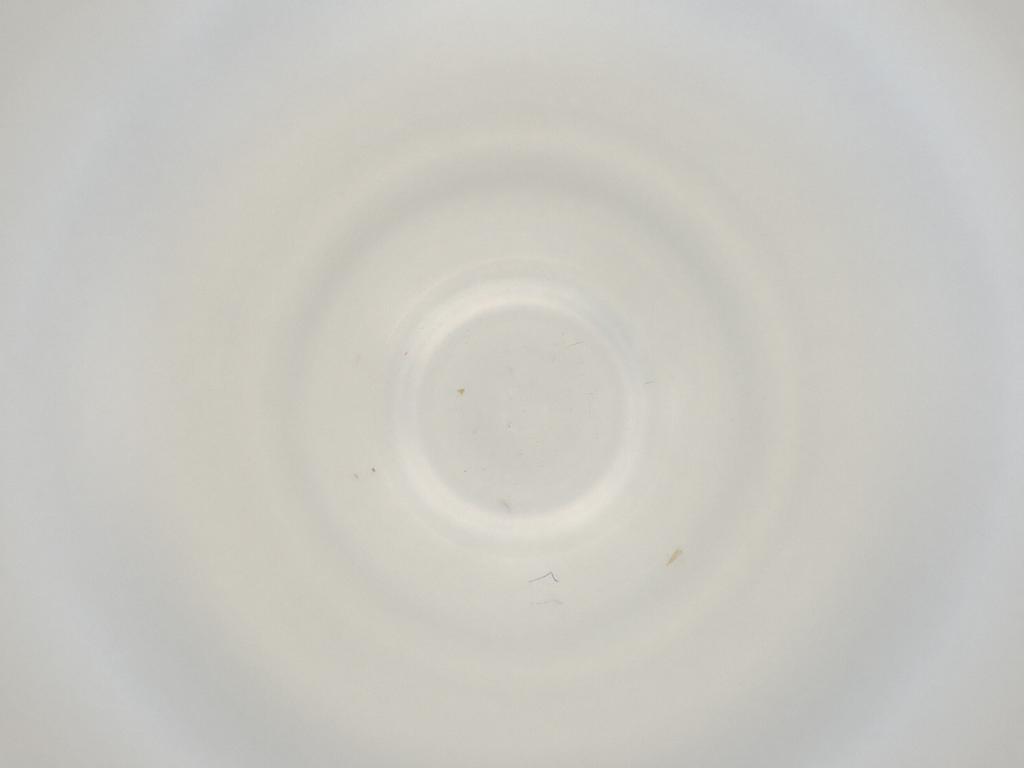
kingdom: Animalia
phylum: Arthropoda
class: Insecta
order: Diptera
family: Cecidomyiidae
